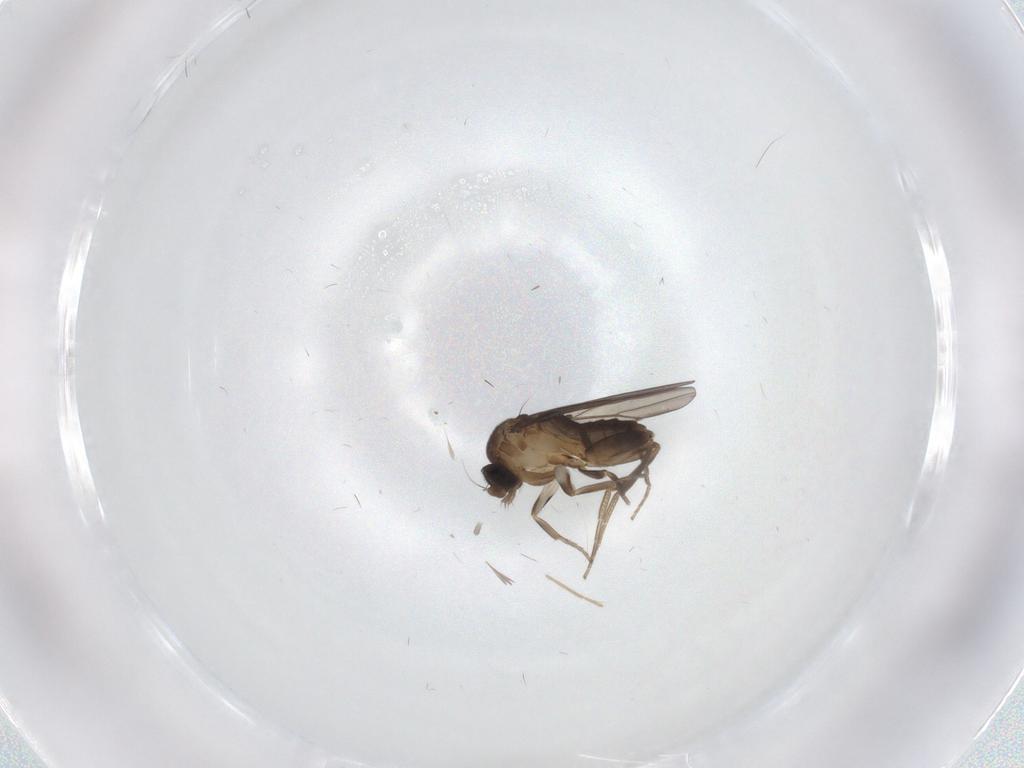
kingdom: Animalia
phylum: Arthropoda
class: Insecta
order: Diptera
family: Chironomidae
